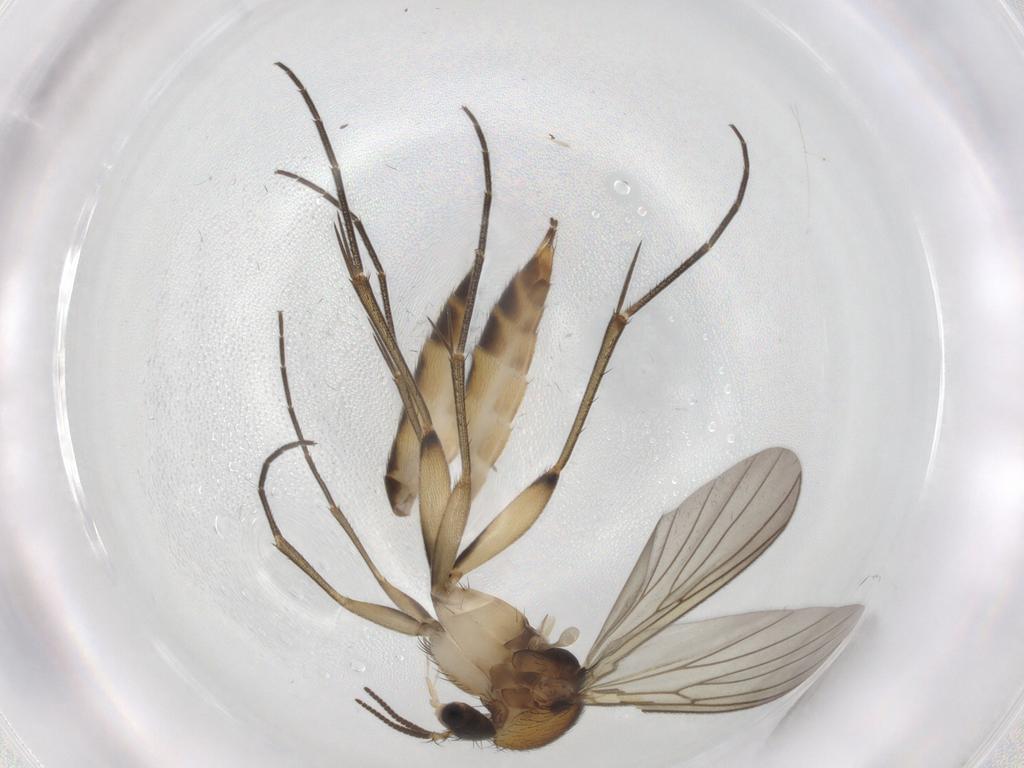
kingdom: Animalia
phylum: Arthropoda
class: Insecta
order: Diptera
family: Mycetophilidae
